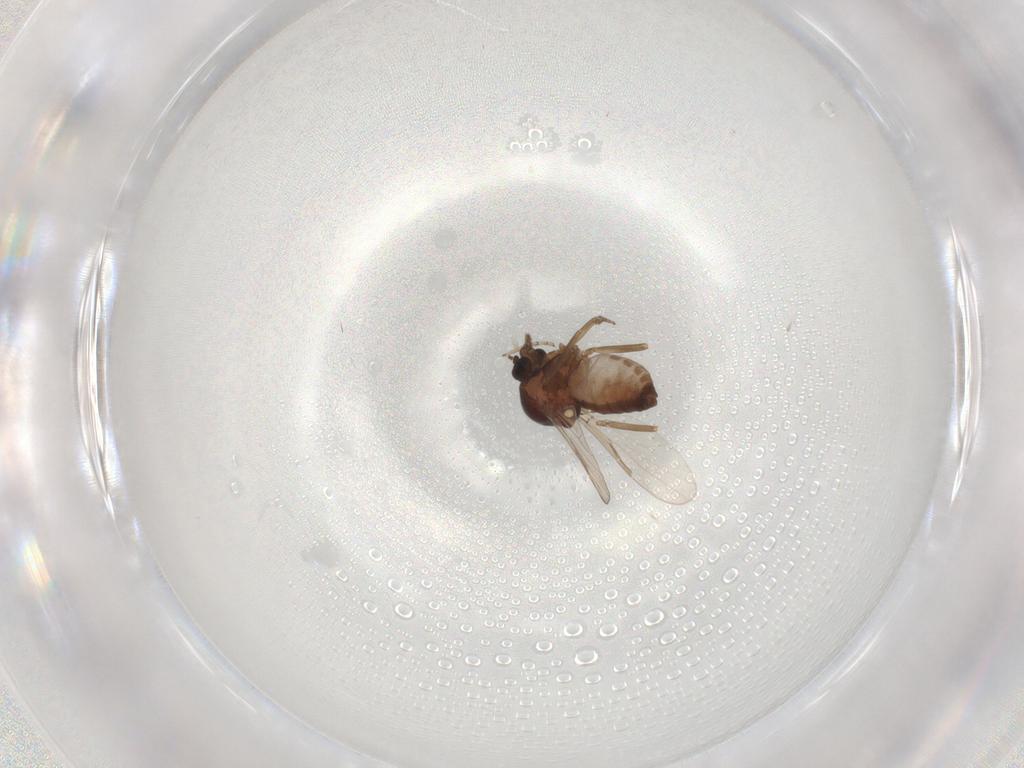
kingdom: Animalia
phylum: Arthropoda
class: Insecta
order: Diptera
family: Ceratopogonidae
